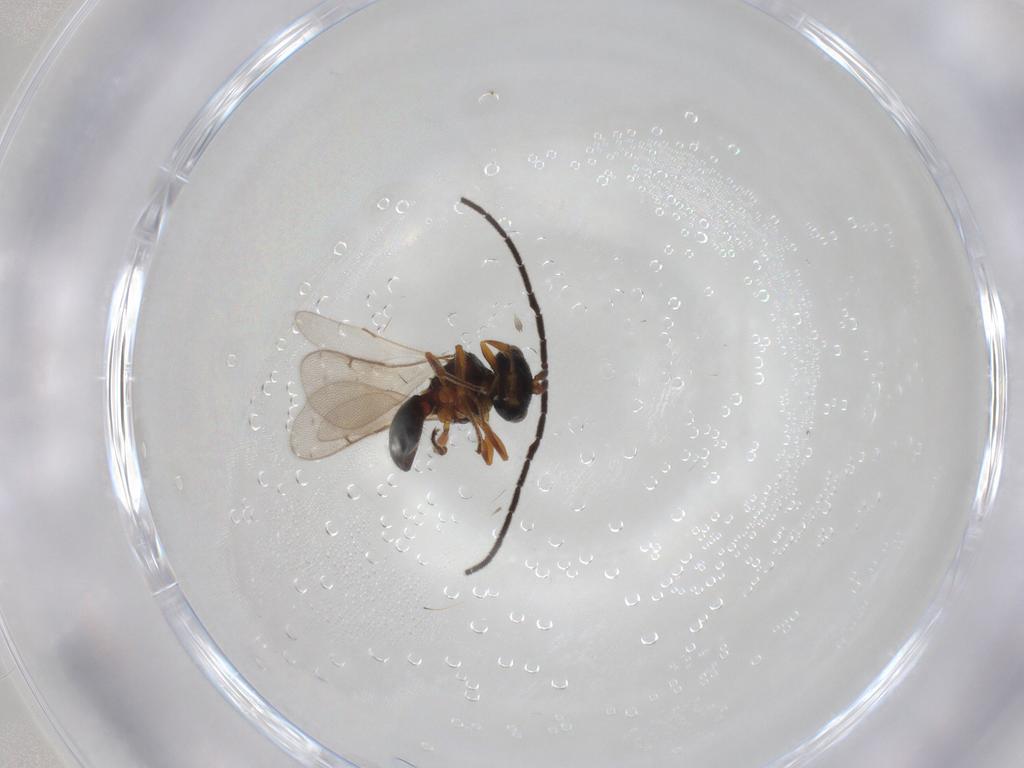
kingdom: Animalia
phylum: Arthropoda
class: Insecta
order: Hymenoptera
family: Scelionidae
